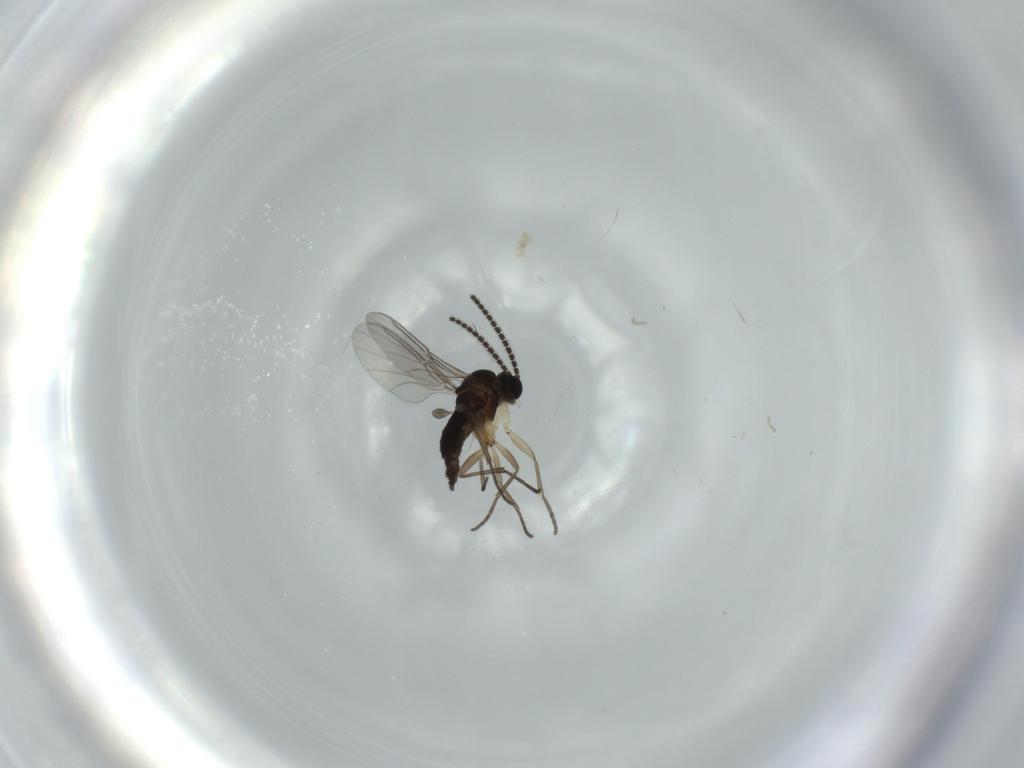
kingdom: Animalia
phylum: Arthropoda
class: Insecta
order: Diptera
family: Sciaridae
